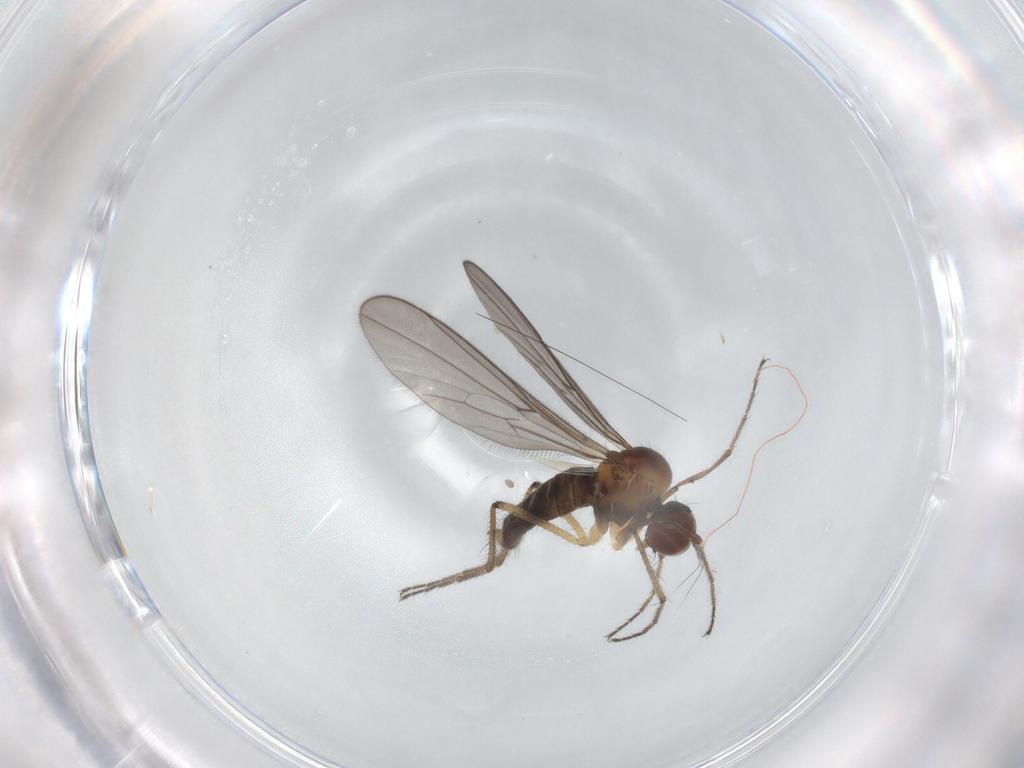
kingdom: Animalia
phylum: Arthropoda
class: Insecta
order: Diptera
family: Hybotidae
